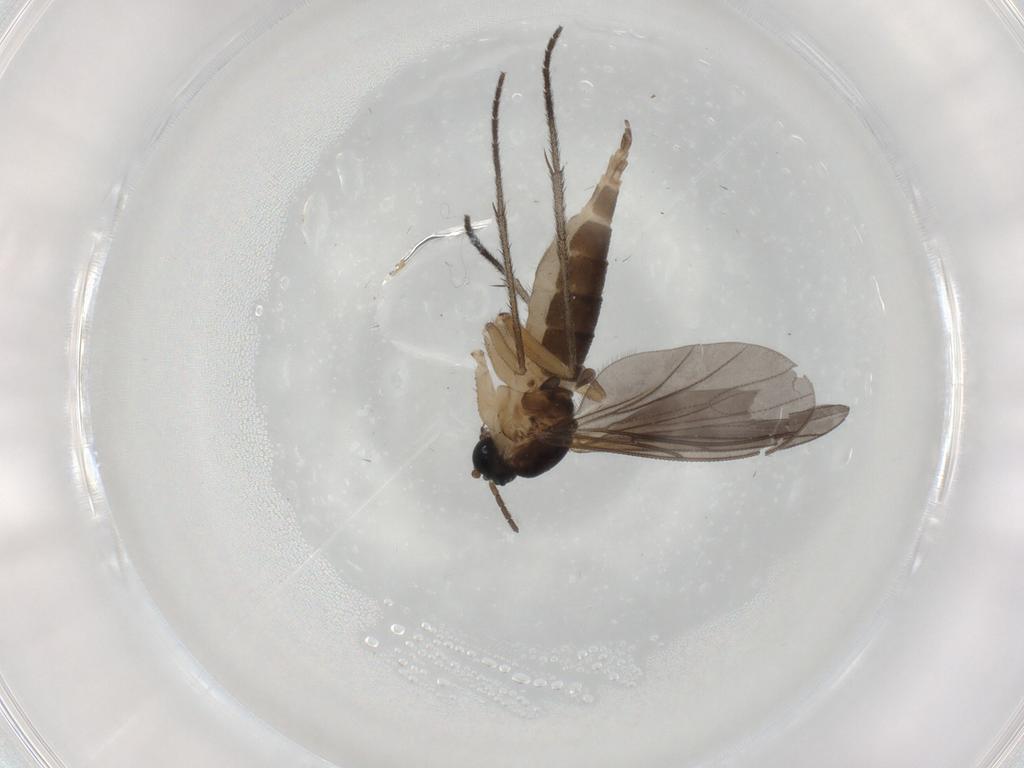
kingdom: Animalia
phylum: Arthropoda
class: Insecta
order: Diptera
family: Sciaridae
